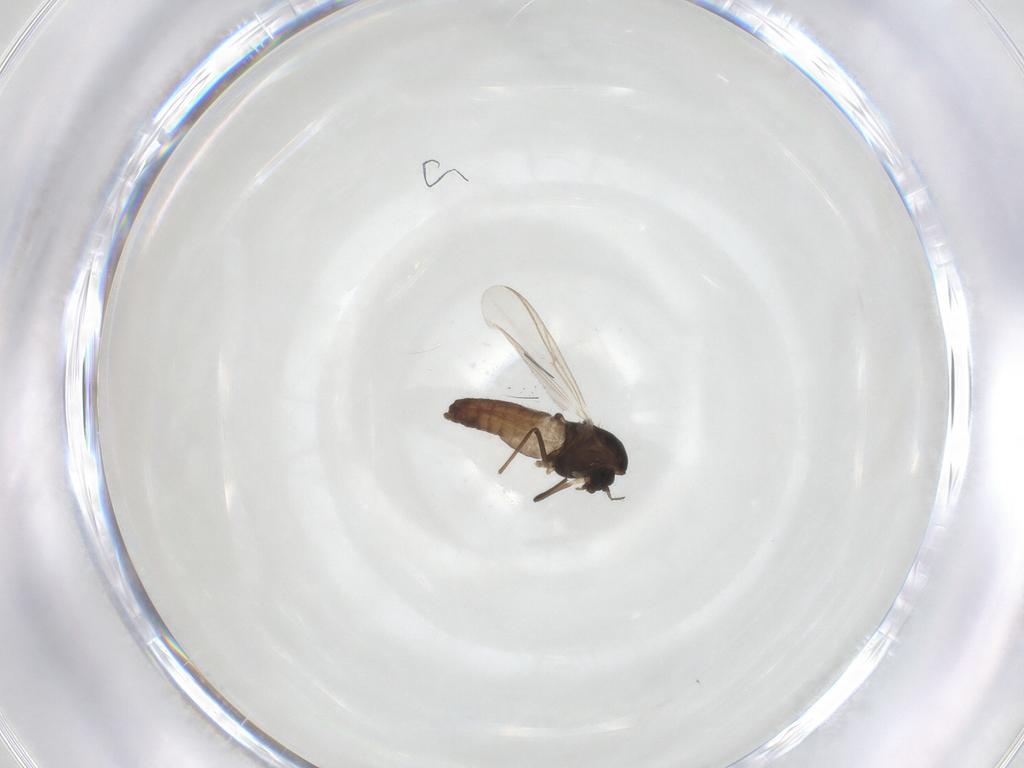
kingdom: Animalia
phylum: Arthropoda
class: Insecta
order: Diptera
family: Chironomidae
